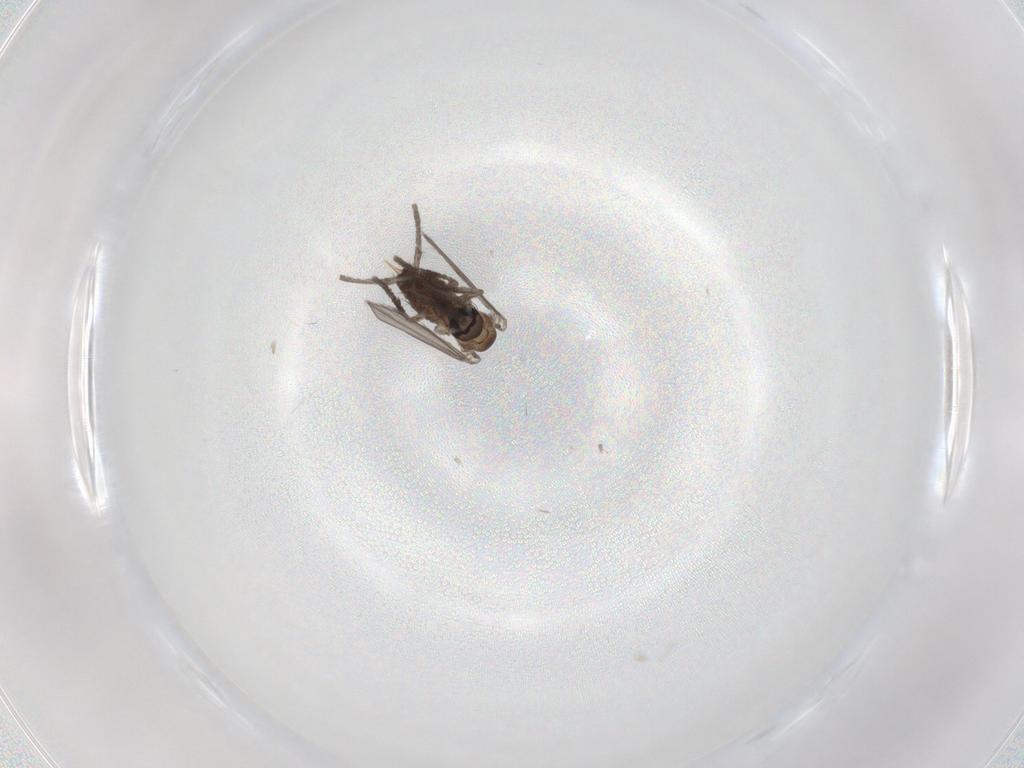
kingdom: Animalia
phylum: Arthropoda
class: Insecta
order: Diptera
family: Psychodidae
